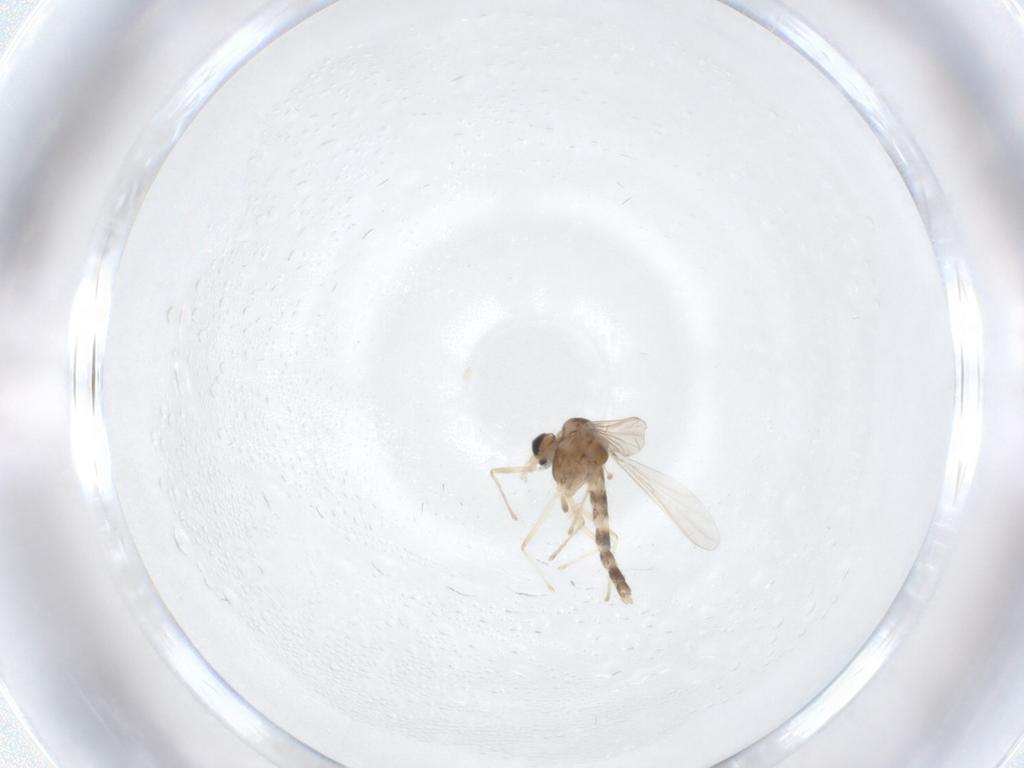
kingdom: Animalia
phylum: Arthropoda
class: Insecta
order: Diptera
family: Chironomidae
